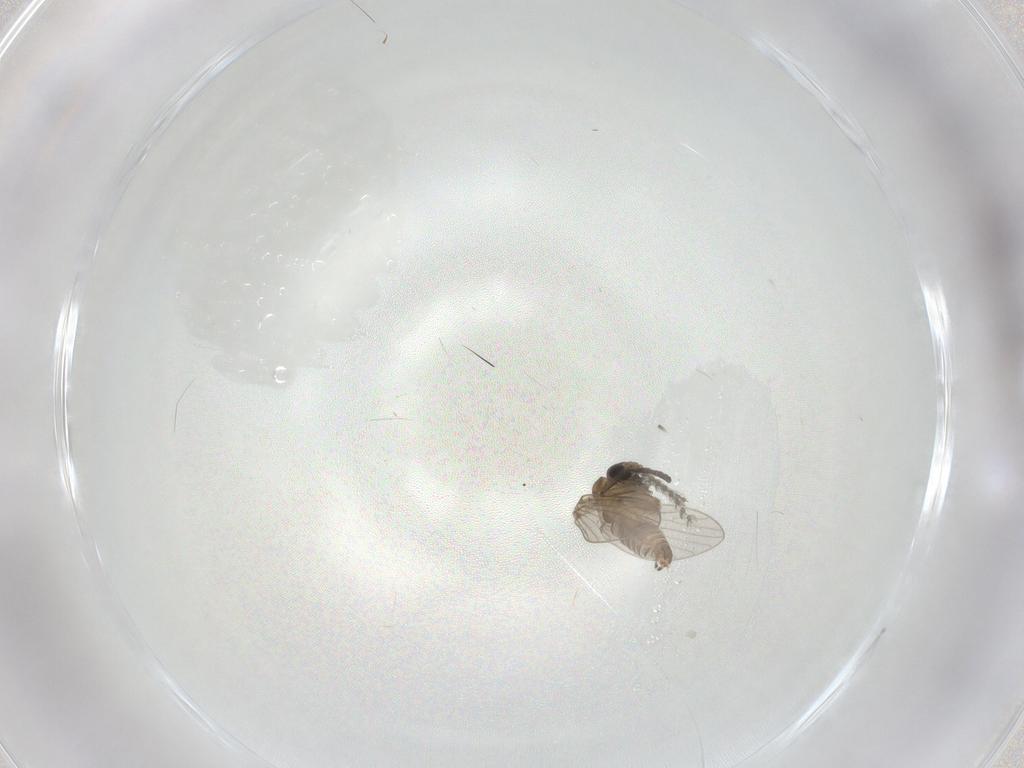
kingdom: Animalia
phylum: Arthropoda
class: Insecta
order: Diptera
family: Psychodidae
